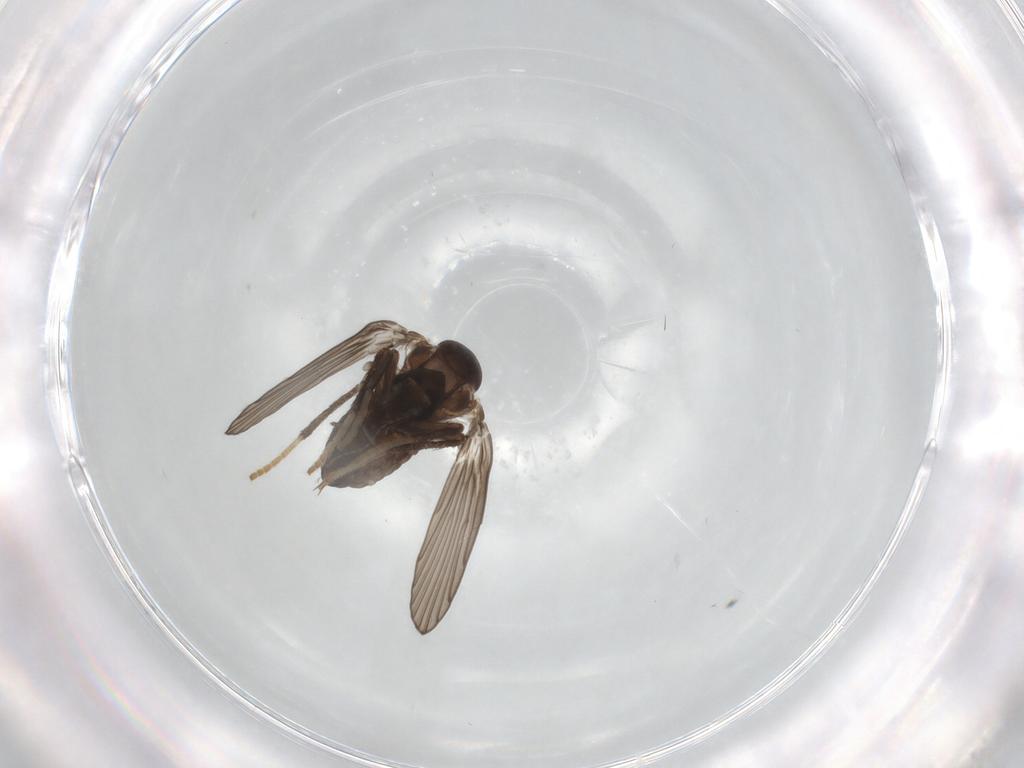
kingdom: Animalia
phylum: Arthropoda
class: Insecta
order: Diptera
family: Psychodidae
